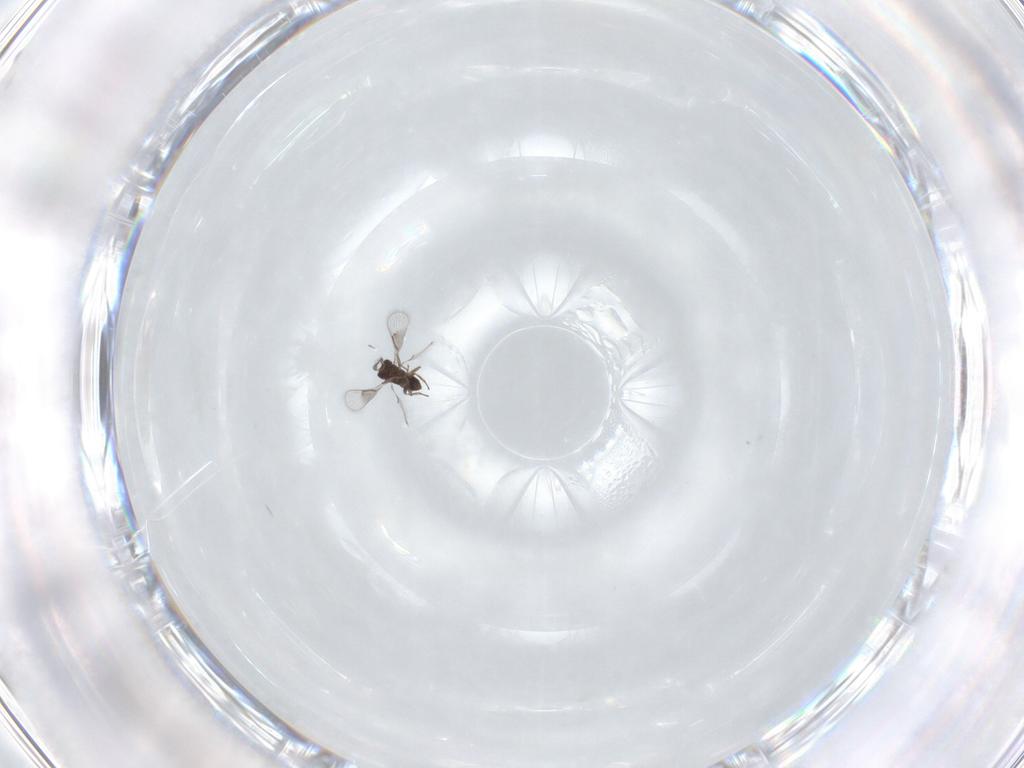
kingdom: Animalia
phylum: Arthropoda
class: Insecta
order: Hymenoptera
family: Trichogrammatidae
